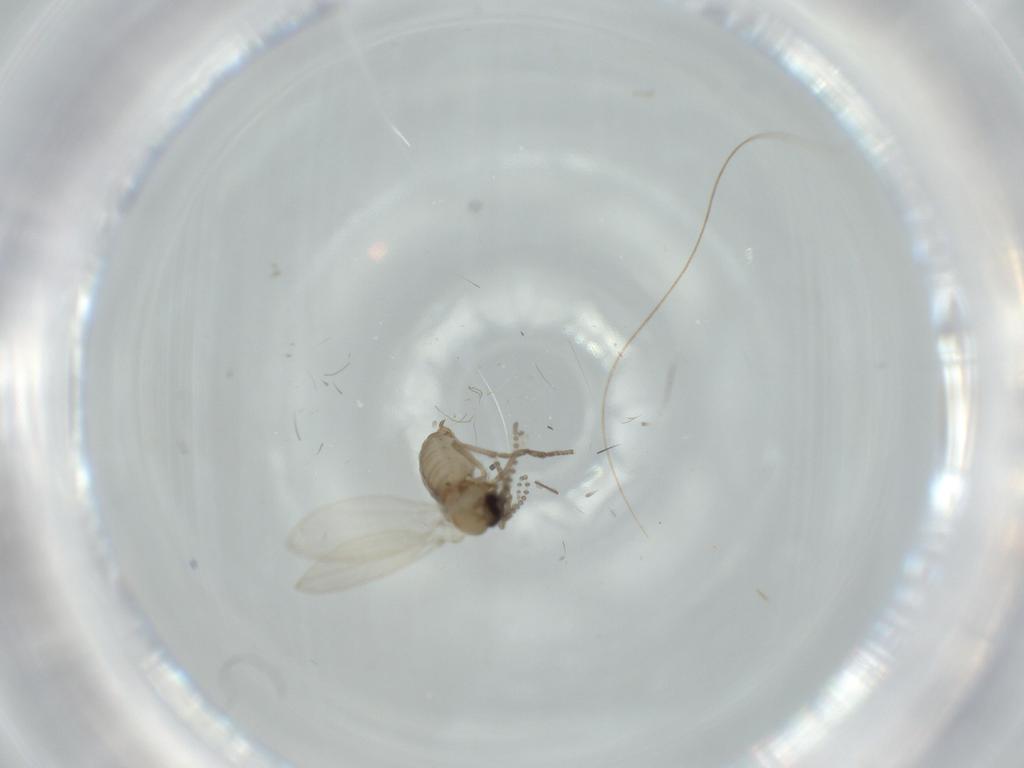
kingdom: Animalia
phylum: Arthropoda
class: Insecta
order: Diptera
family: Psychodidae
